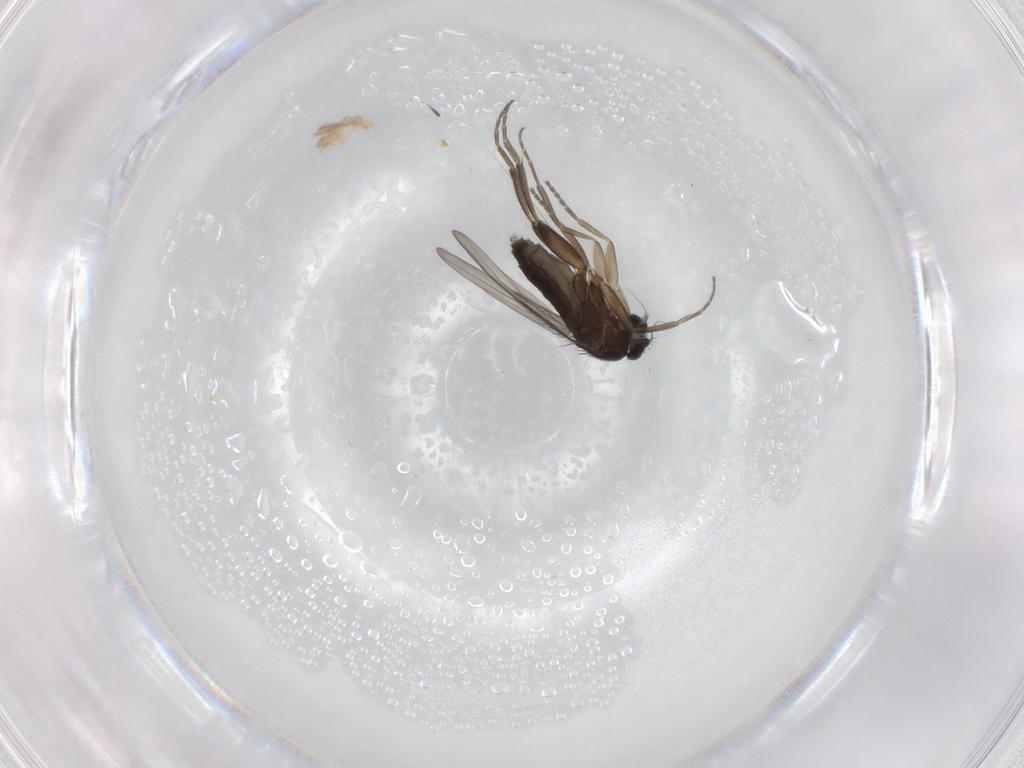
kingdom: Animalia
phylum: Arthropoda
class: Insecta
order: Diptera
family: Phoridae
